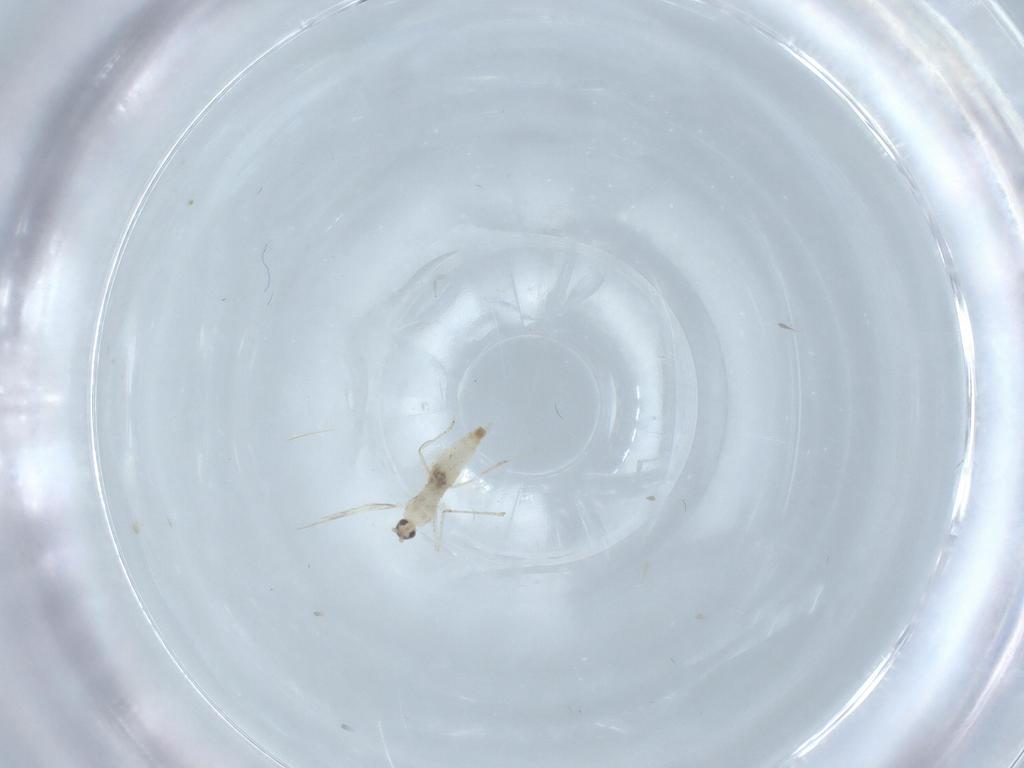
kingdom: Animalia
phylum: Arthropoda
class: Insecta
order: Diptera
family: Cecidomyiidae
